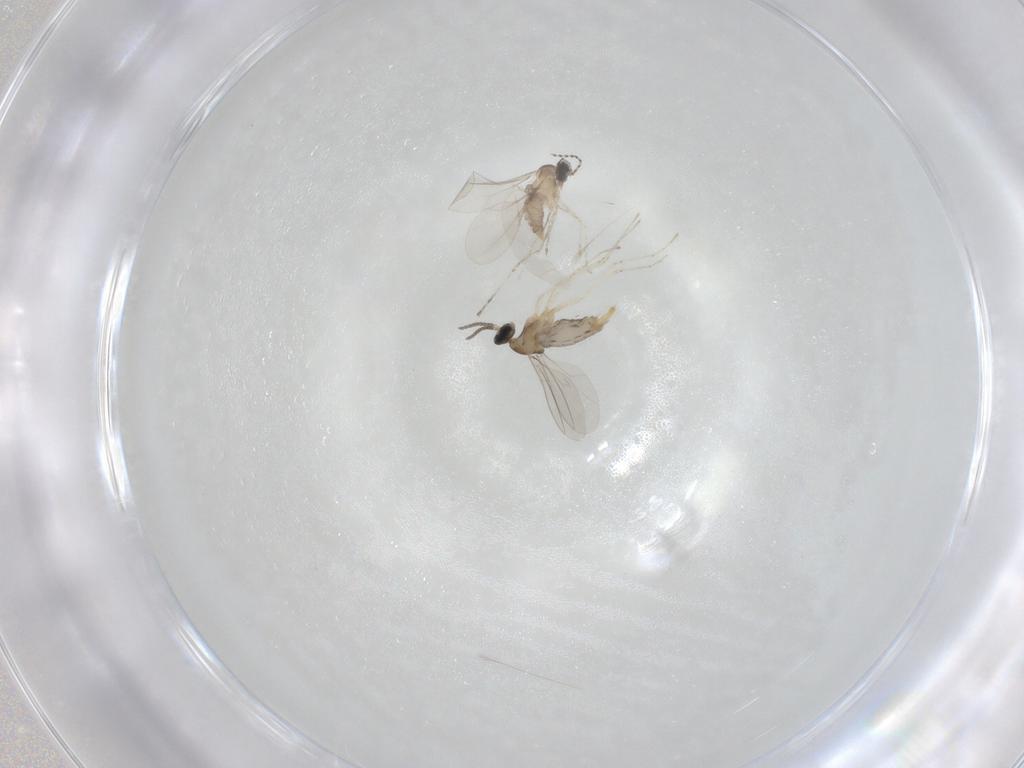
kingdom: Animalia
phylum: Arthropoda
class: Insecta
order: Diptera
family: Cecidomyiidae
